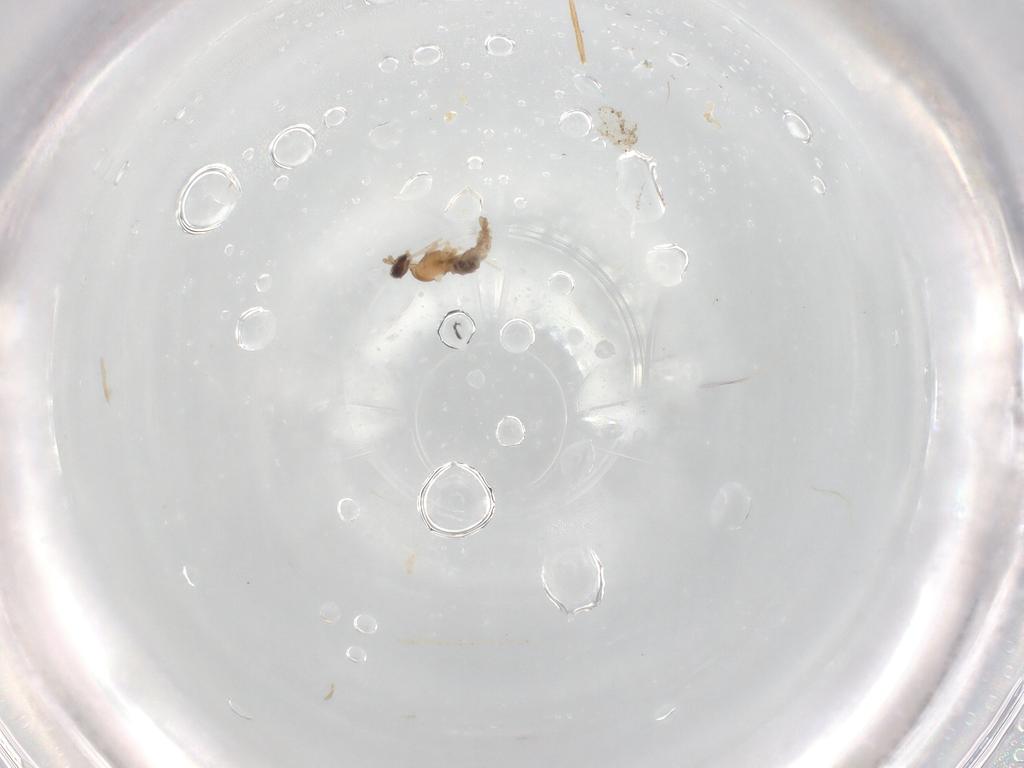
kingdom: Animalia
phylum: Arthropoda
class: Insecta
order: Diptera
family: Cecidomyiidae
